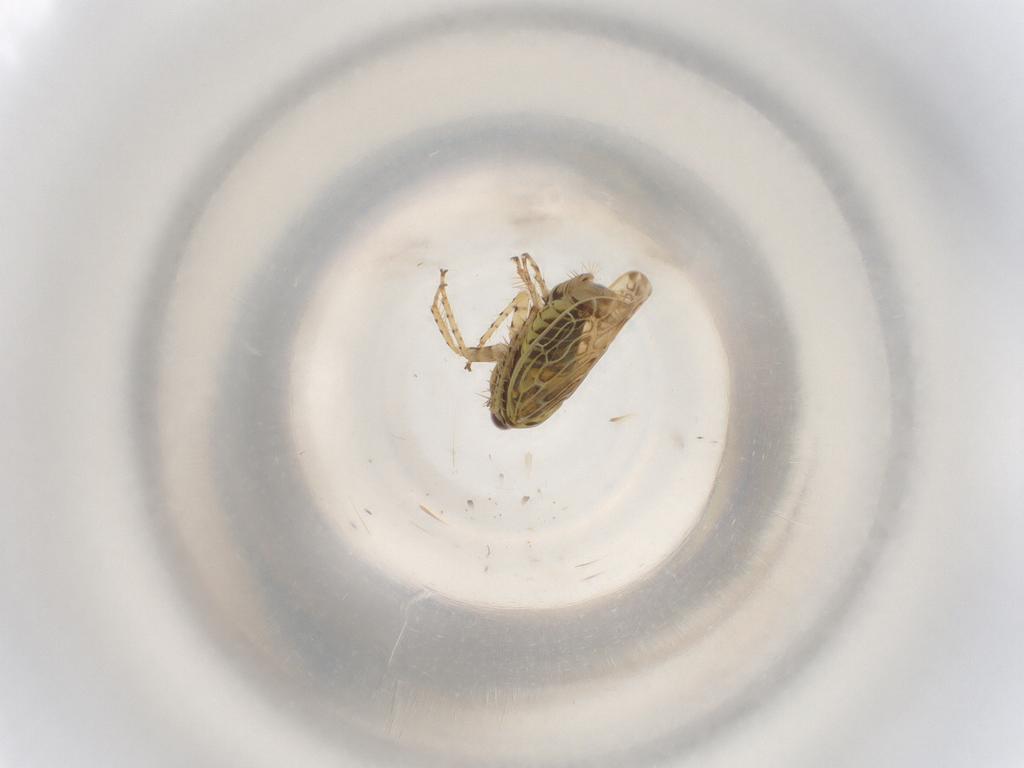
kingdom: Animalia
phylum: Arthropoda
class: Insecta
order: Hemiptera
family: Cicadellidae
